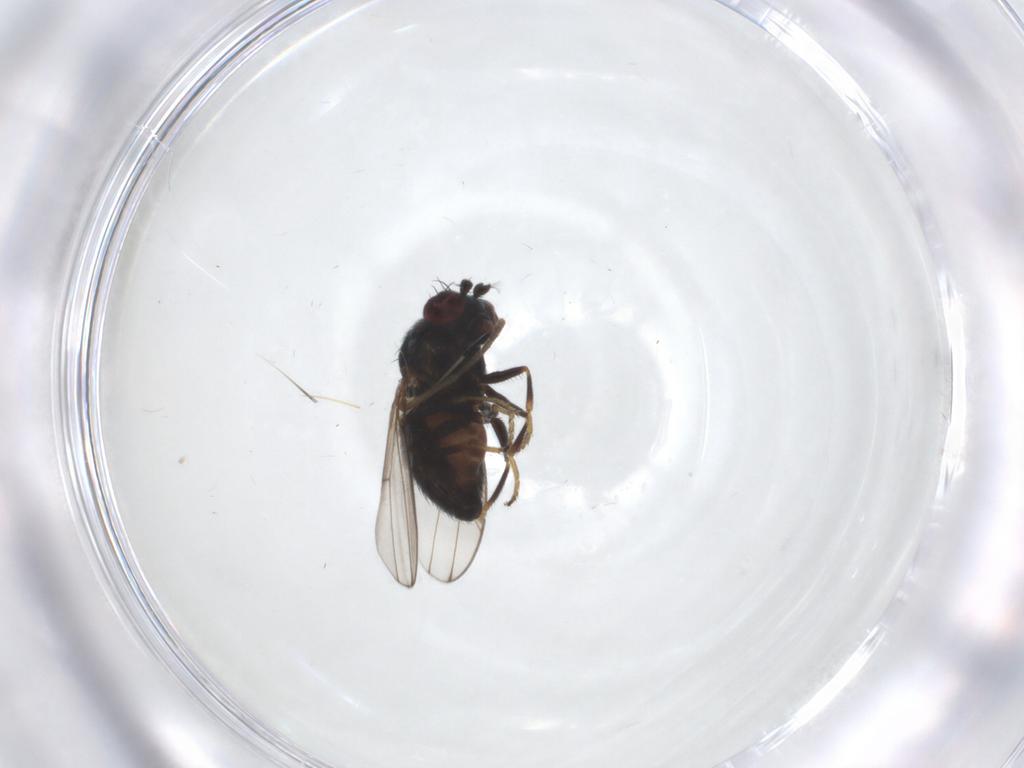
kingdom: Animalia
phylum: Arthropoda
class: Insecta
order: Diptera
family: Ephydridae
